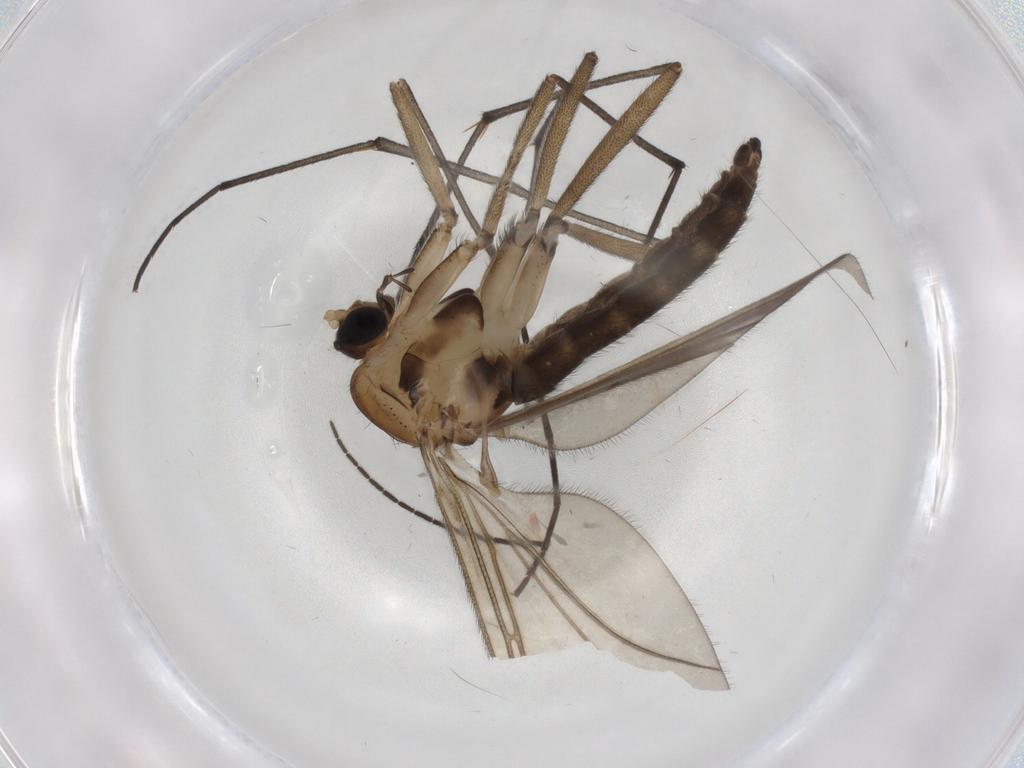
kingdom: Animalia
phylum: Arthropoda
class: Insecta
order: Diptera
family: Sciaridae
